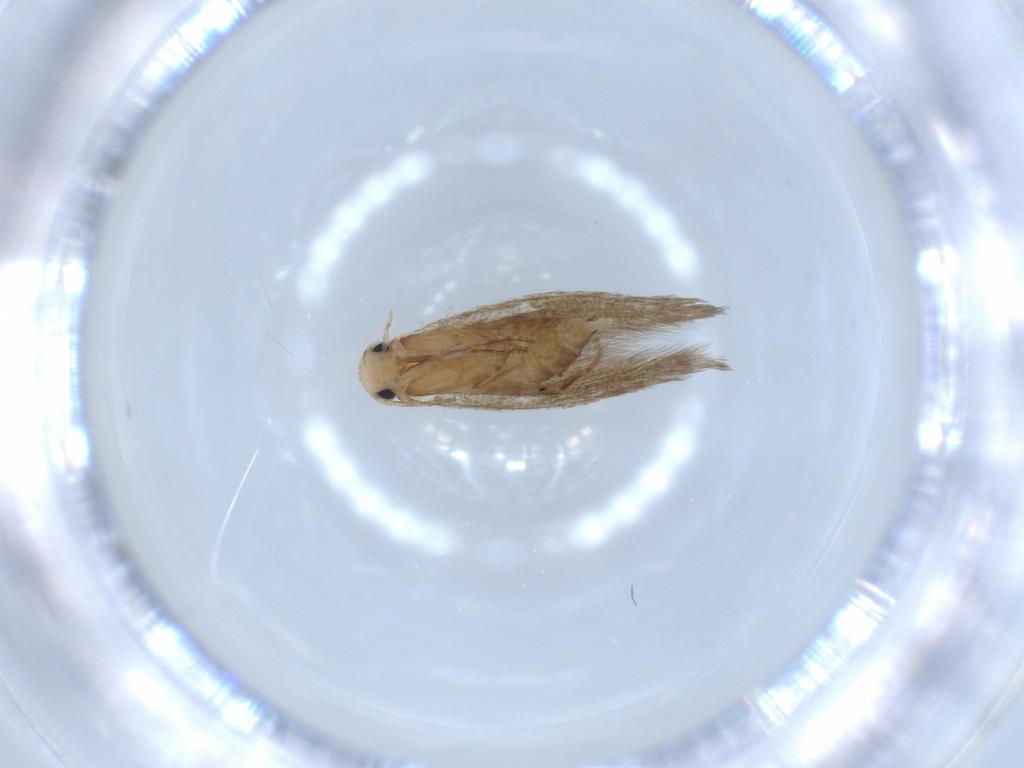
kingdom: Animalia
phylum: Arthropoda
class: Insecta
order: Lepidoptera
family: Tineidae
